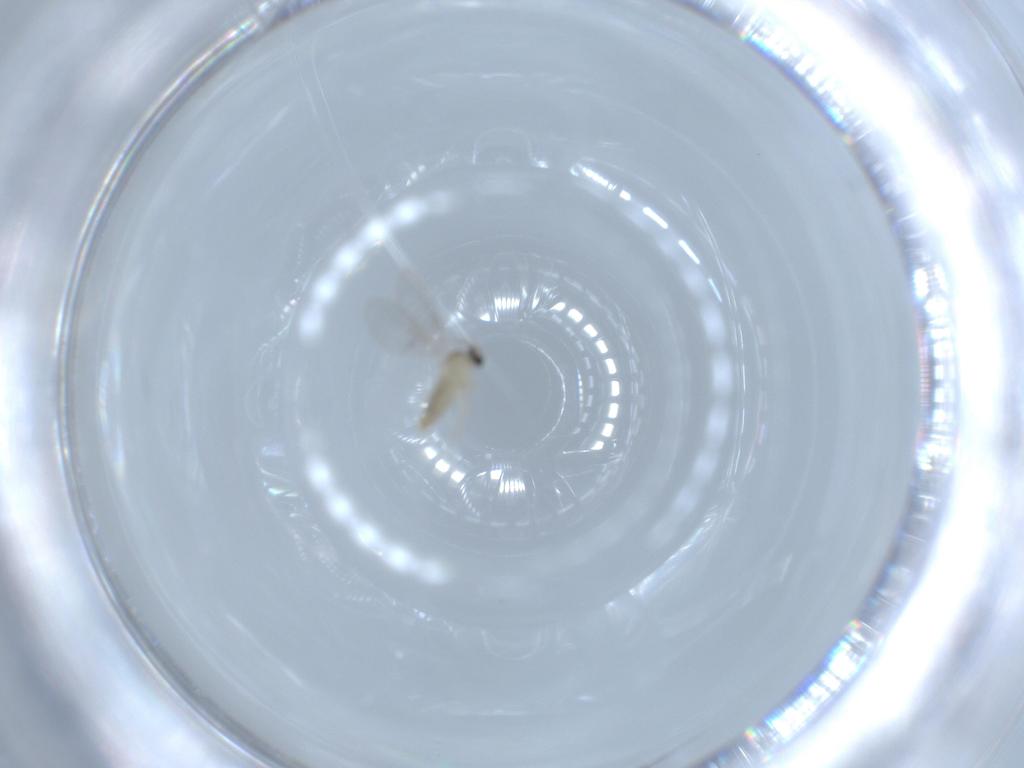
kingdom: Animalia
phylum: Arthropoda
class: Insecta
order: Diptera
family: Cecidomyiidae
